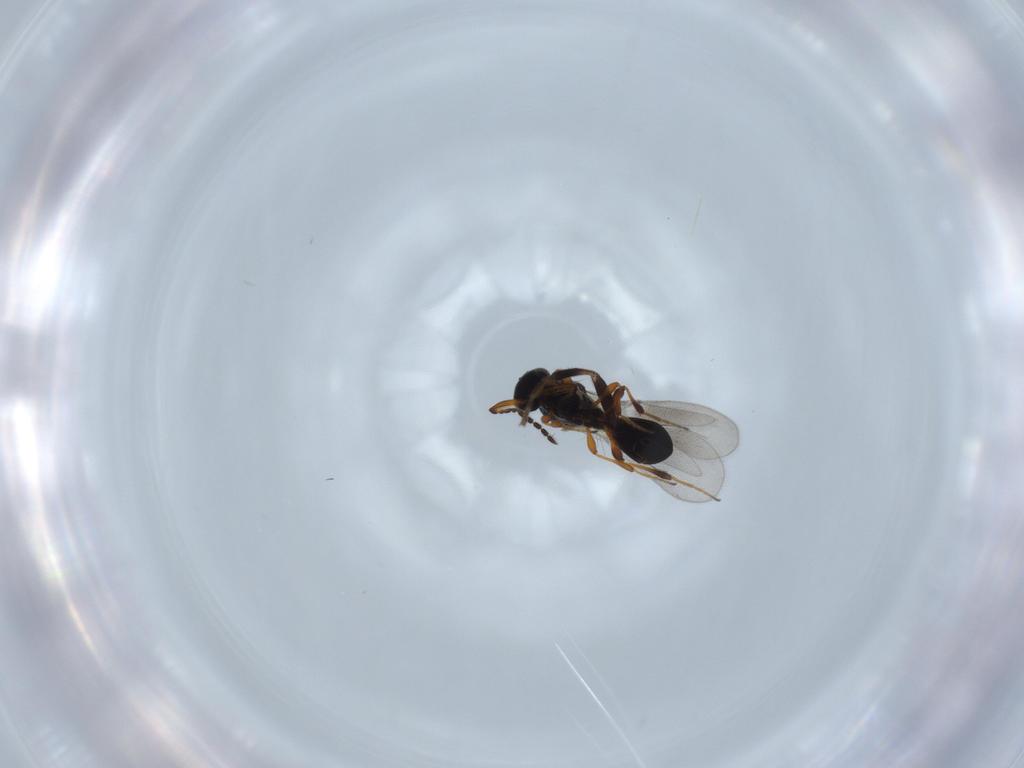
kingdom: Animalia
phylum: Arthropoda
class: Insecta
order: Hymenoptera
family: Platygastridae
